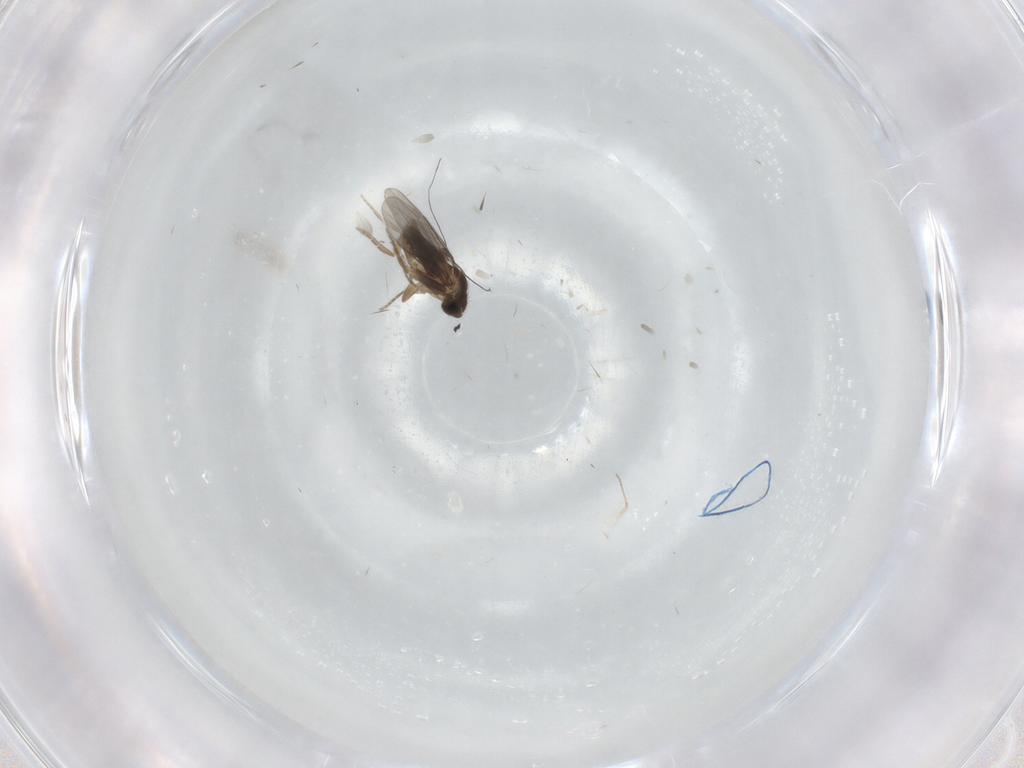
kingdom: Animalia
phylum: Arthropoda
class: Insecta
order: Diptera
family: Cecidomyiidae
